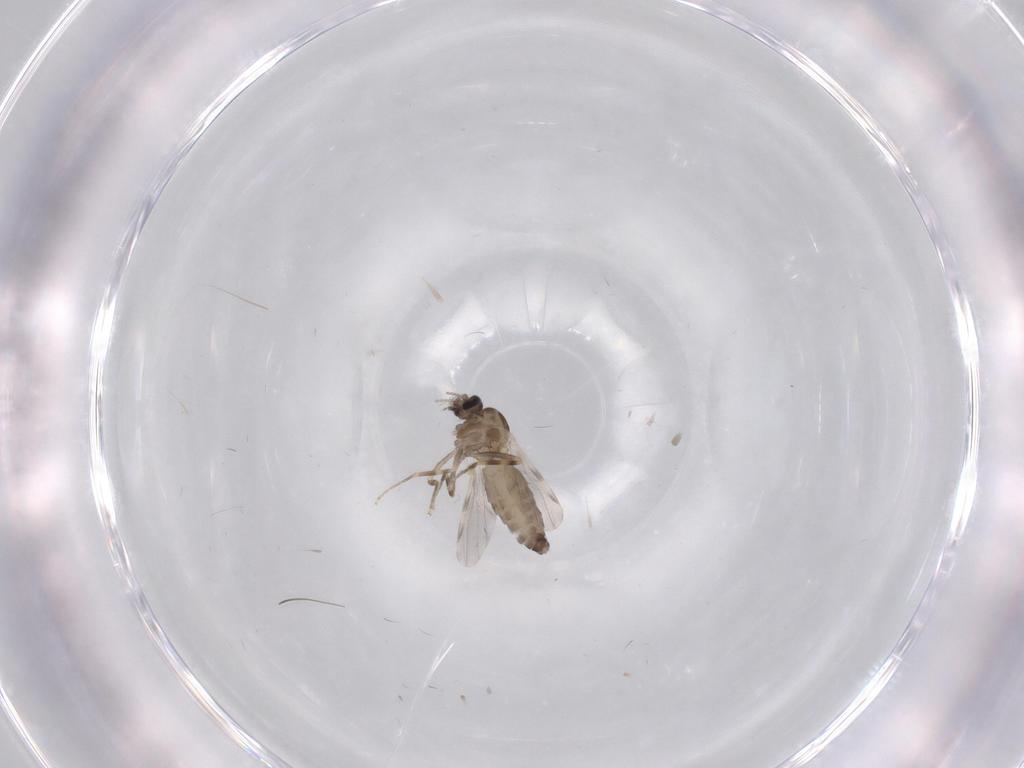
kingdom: Animalia
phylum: Arthropoda
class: Insecta
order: Diptera
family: Ceratopogonidae
